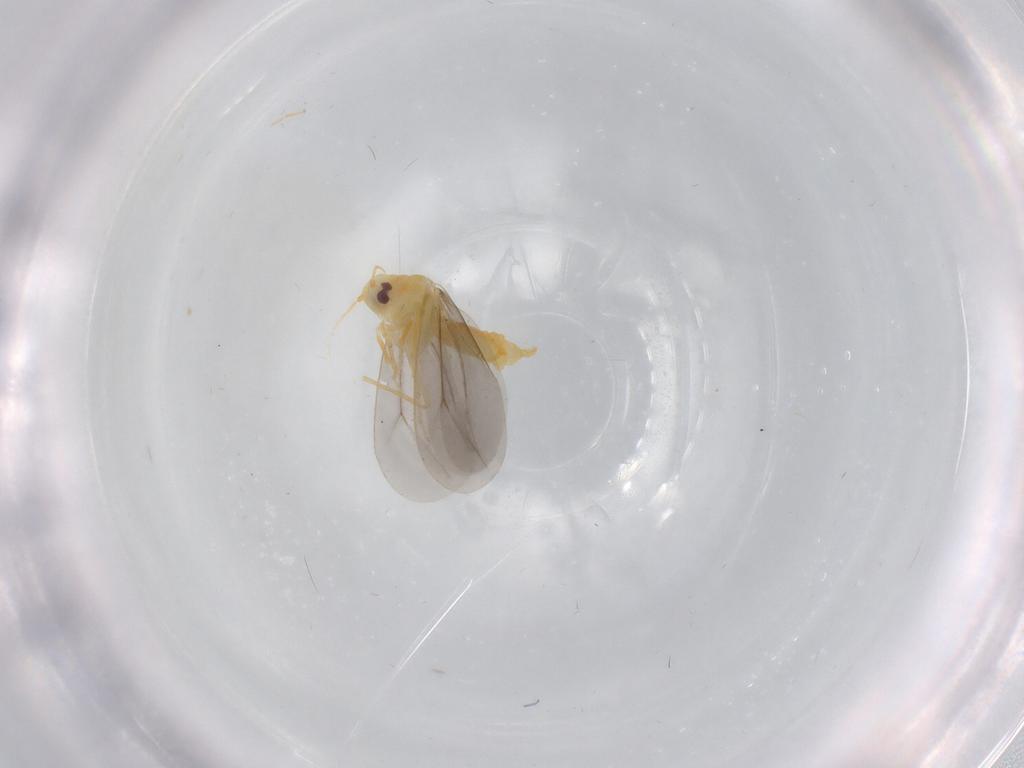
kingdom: Animalia
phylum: Arthropoda
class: Insecta
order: Hemiptera
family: Aleyrodidae
